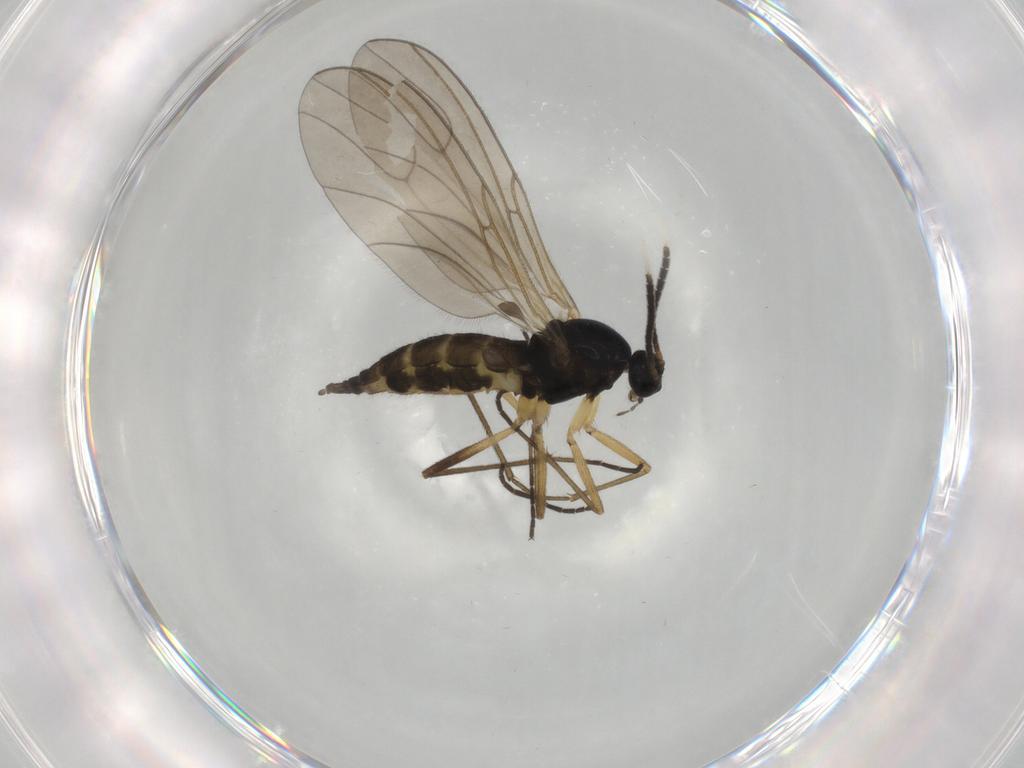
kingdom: Animalia
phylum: Arthropoda
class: Insecta
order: Diptera
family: Sciaridae
